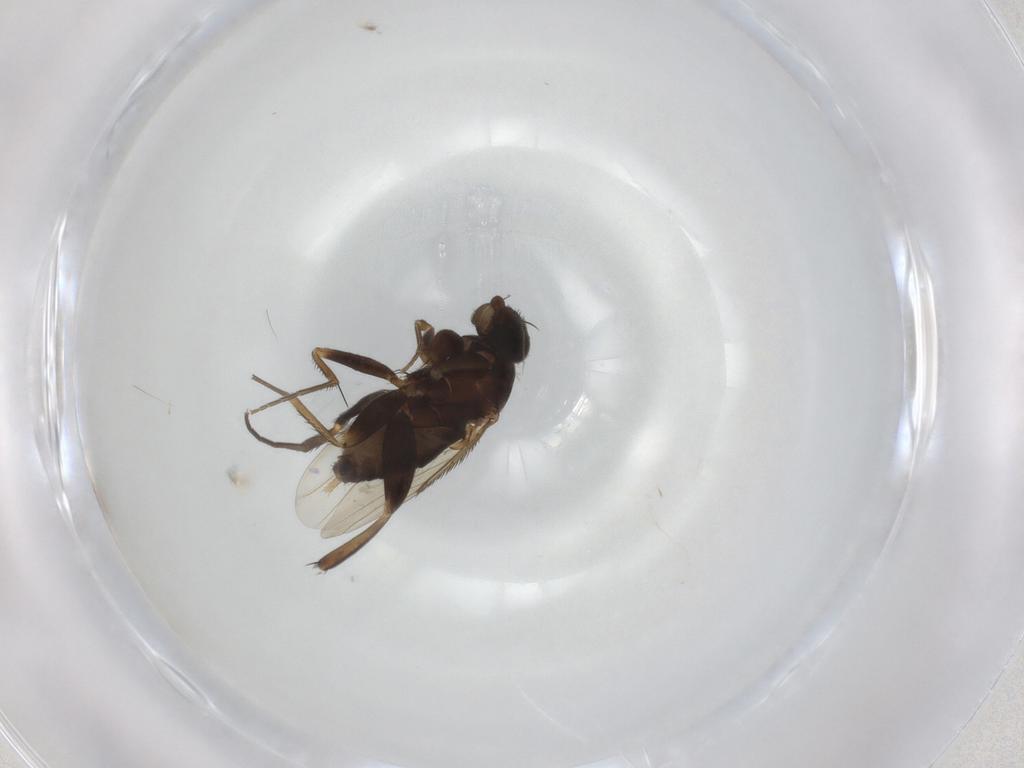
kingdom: Animalia
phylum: Arthropoda
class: Insecta
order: Diptera
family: Phoridae
